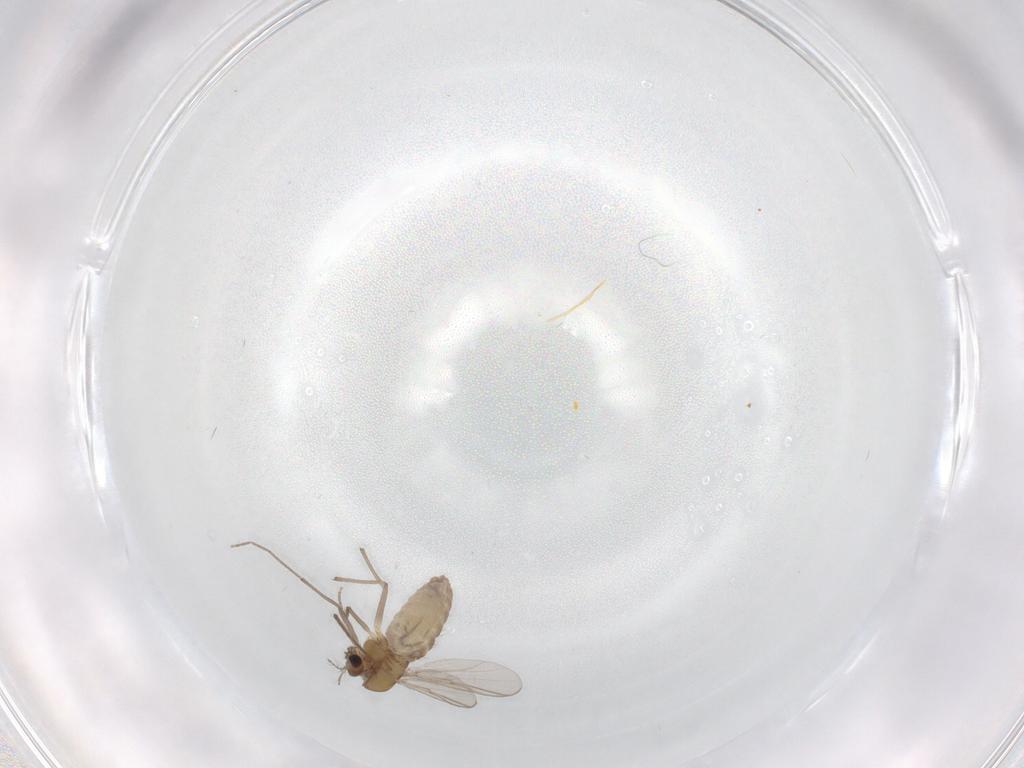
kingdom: Animalia
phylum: Arthropoda
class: Insecta
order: Diptera
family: Chironomidae
